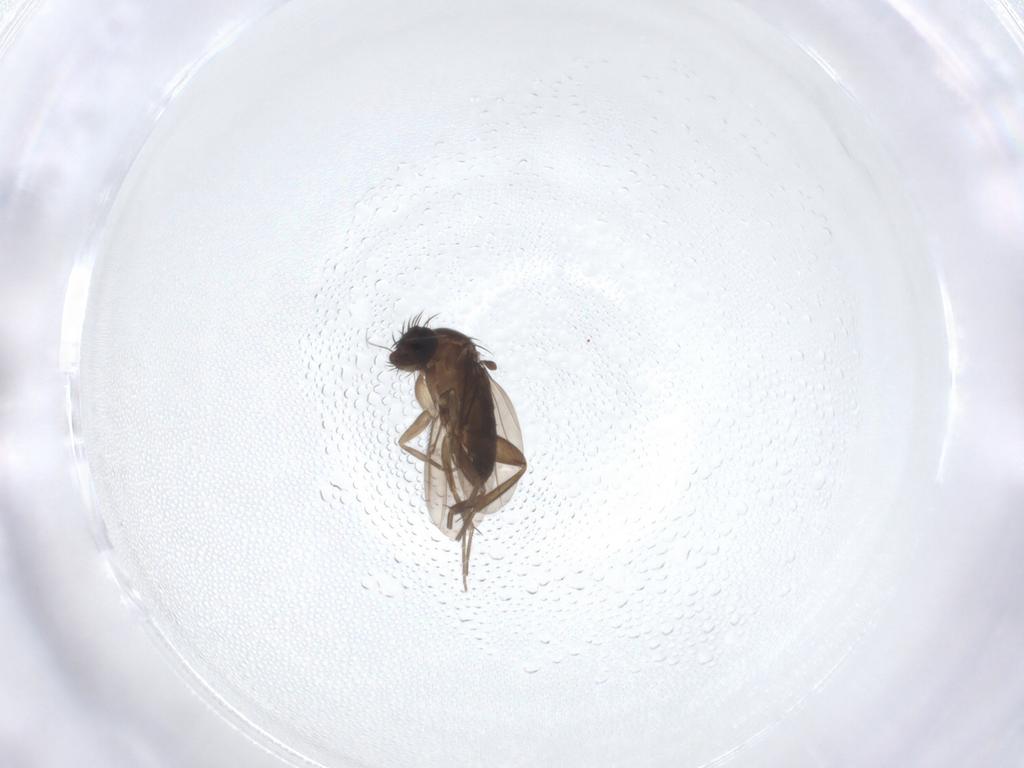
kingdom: Animalia
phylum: Arthropoda
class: Insecta
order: Diptera
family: Phoridae
